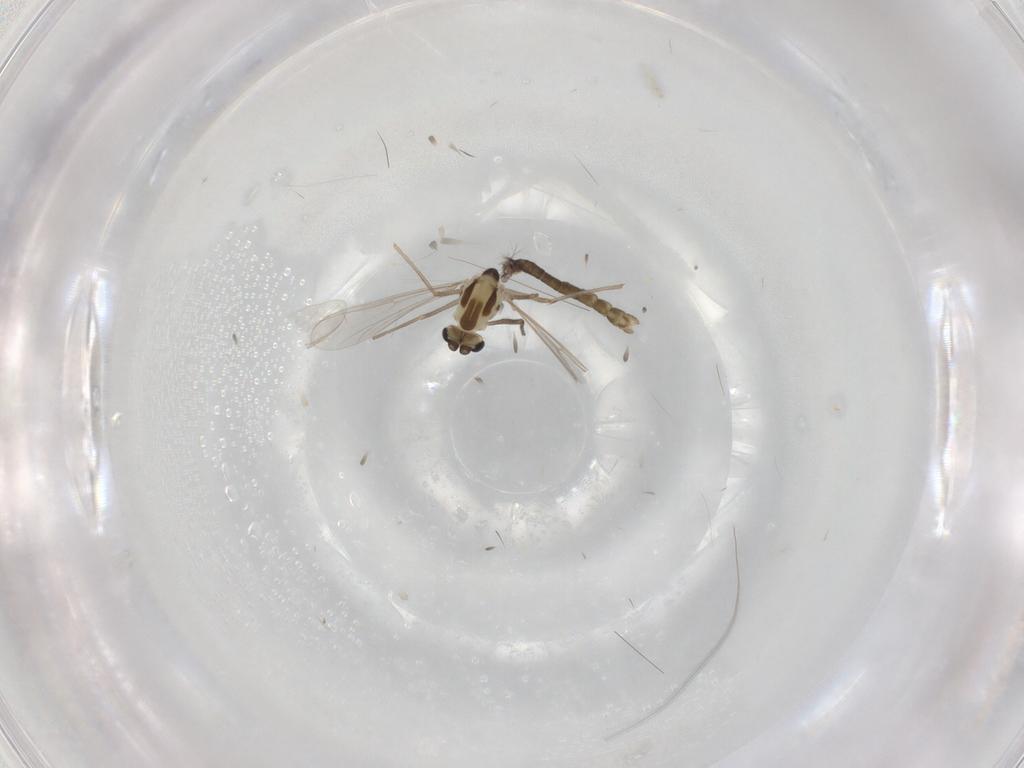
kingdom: Animalia
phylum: Arthropoda
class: Insecta
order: Diptera
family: Chironomidae
